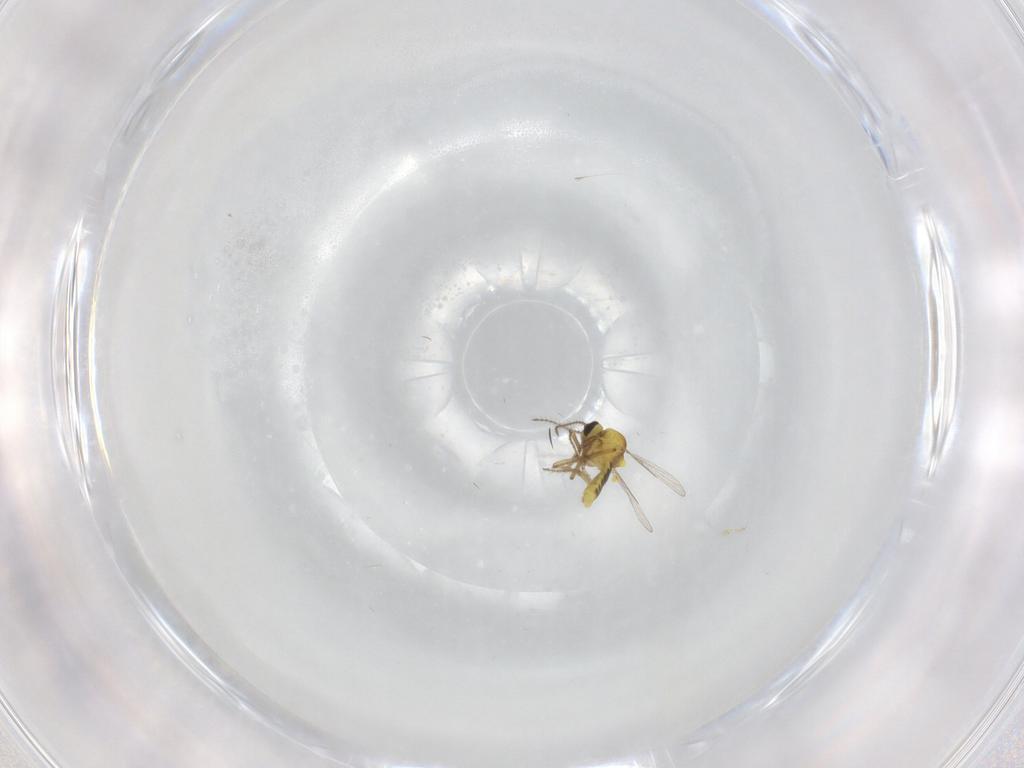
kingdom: Animalia
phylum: Arthropoda
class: Insecta
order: Diptera
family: Ceratopogonidae
